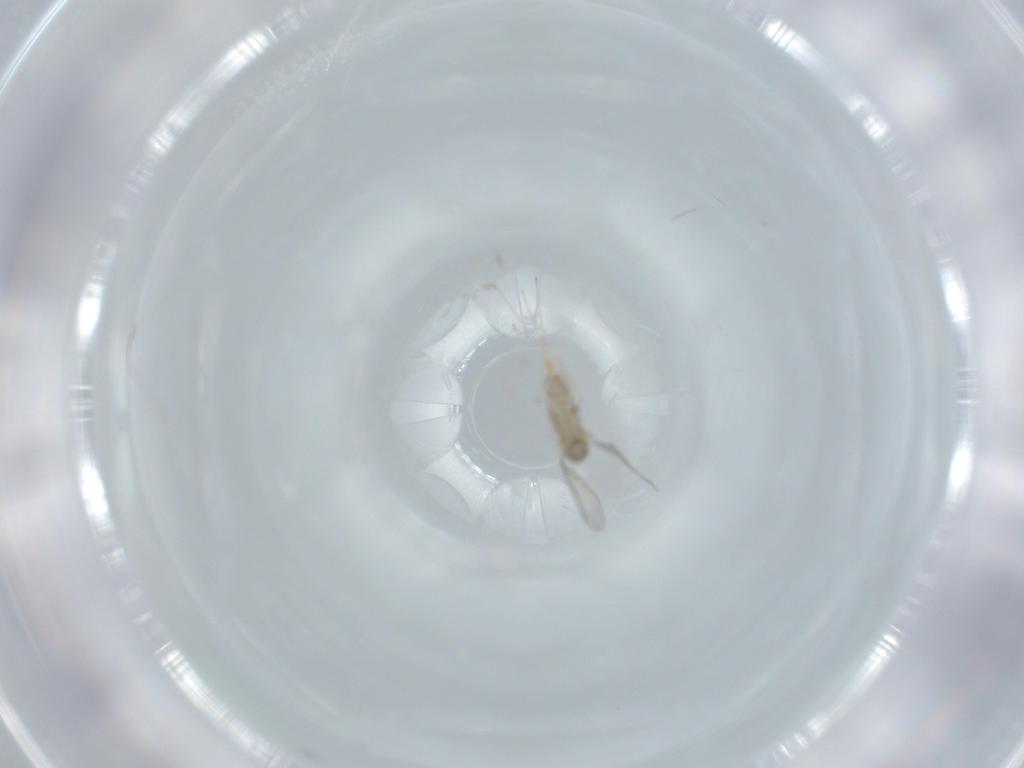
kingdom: Animalia
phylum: Arthropoda
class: Insecta
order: Diptera
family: Cecidomyiidae
